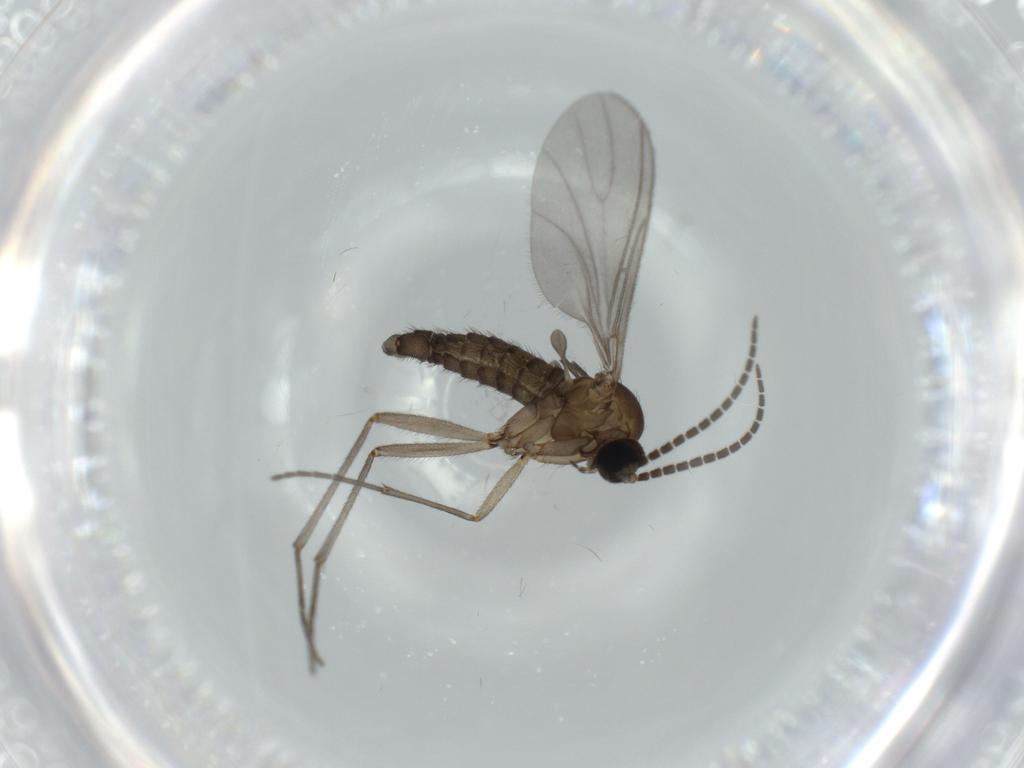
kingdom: Animalia
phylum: Arthropoda
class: Insecta
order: Diptera
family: Sciaridae
